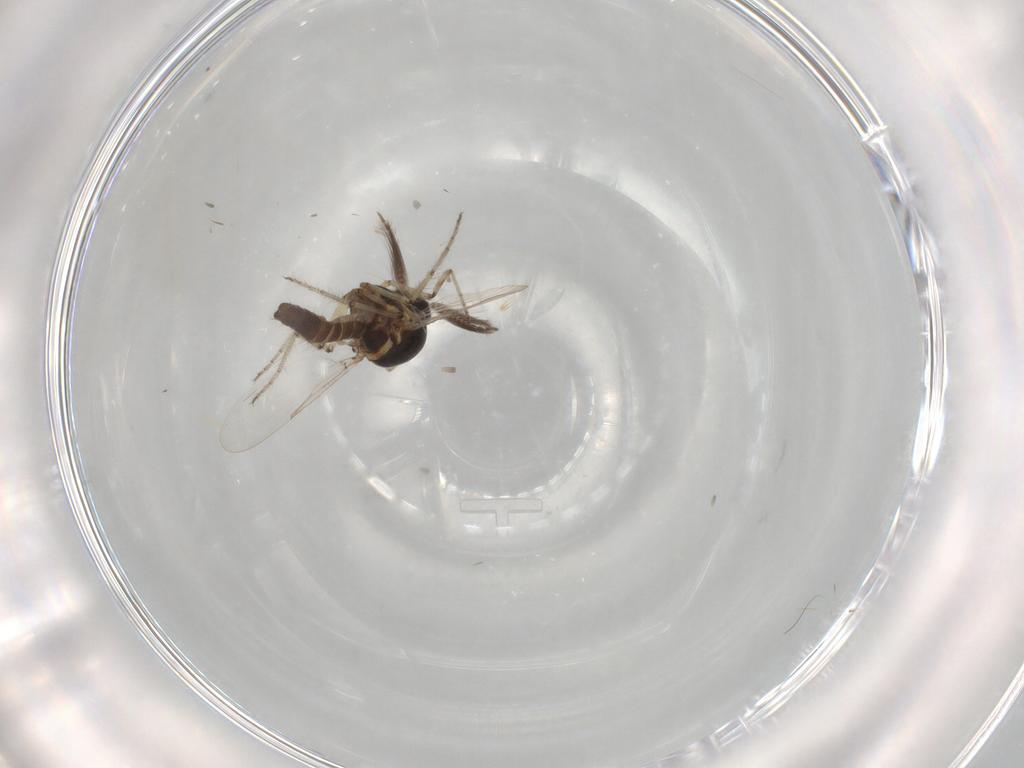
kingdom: Animalia
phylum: Arthropoda
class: Insecta
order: Diptera
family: Ceratopogonidae
